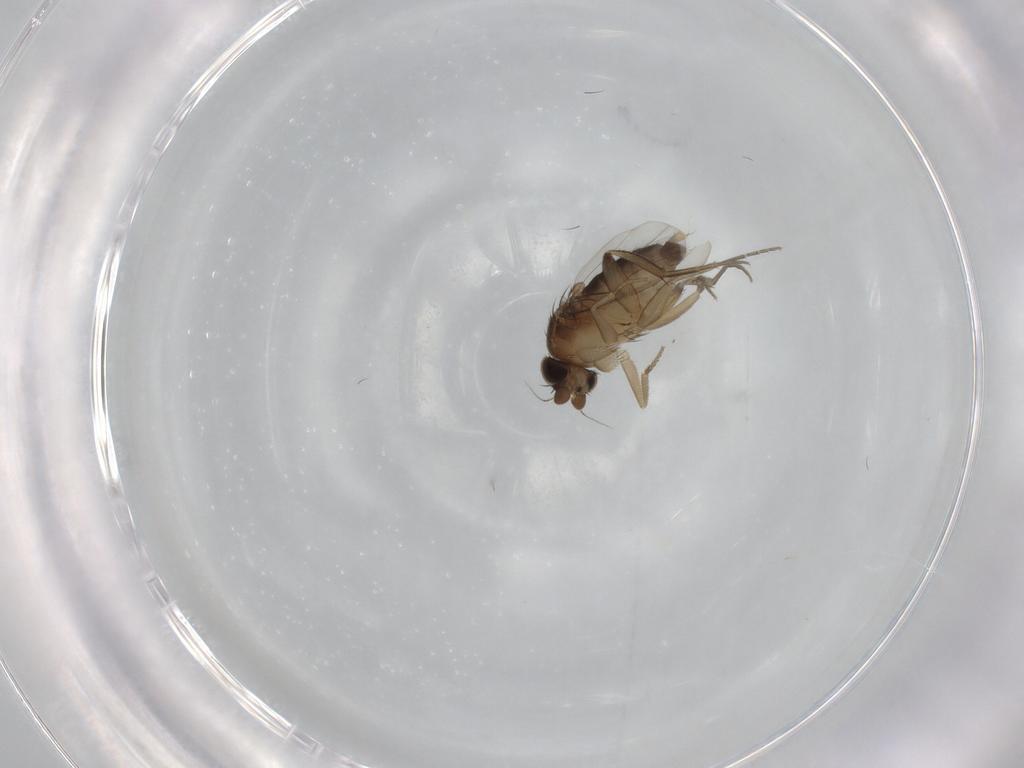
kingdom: Animalia
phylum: Arthropoda
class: Insecta
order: Diptera
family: Phoridae
